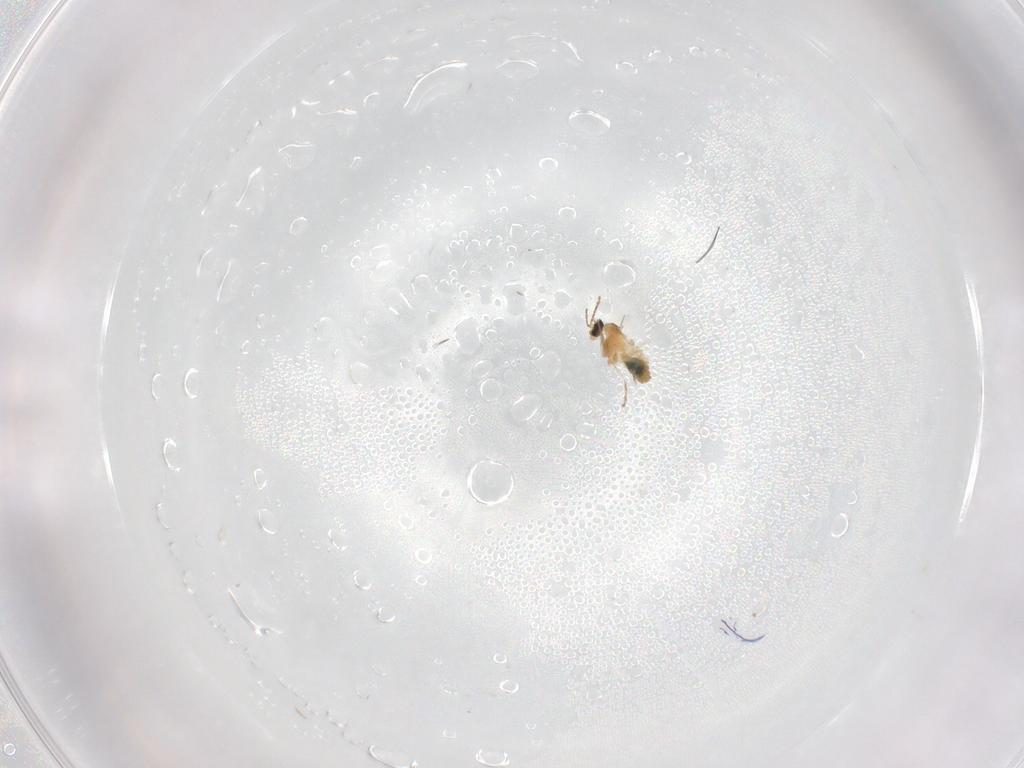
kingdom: Animalia
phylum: Arthropoda
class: Insecta
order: Diptera
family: Cecidomyiidae
